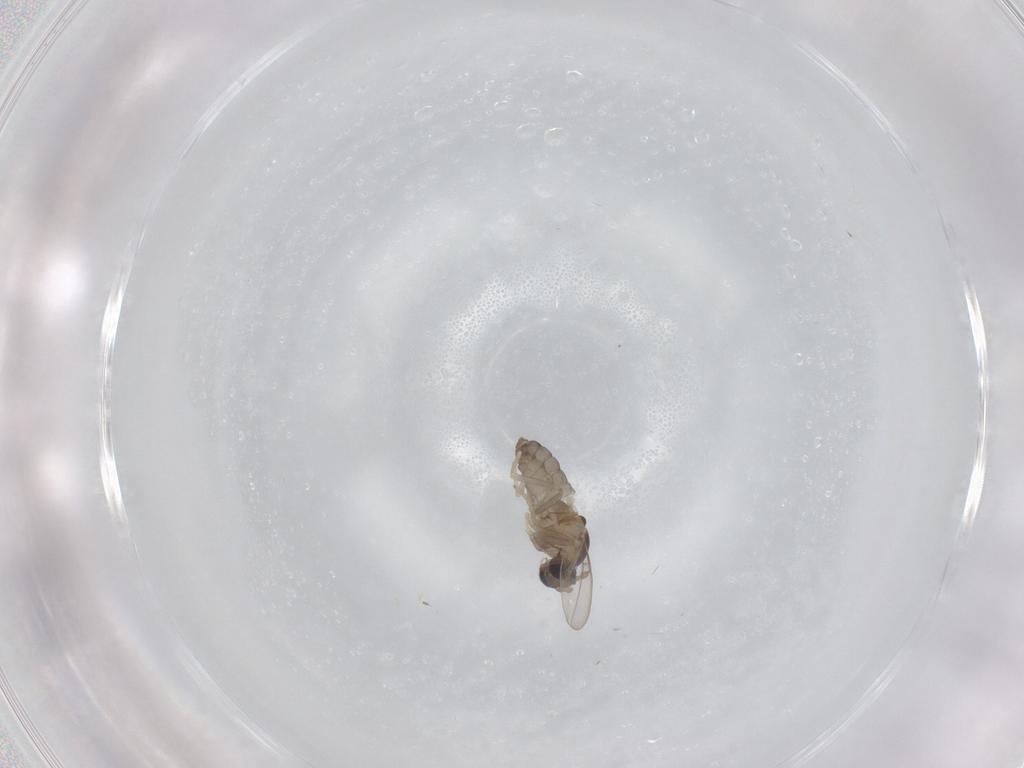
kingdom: Animalia
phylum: Arthropoda
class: Insecta
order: Diptera
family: Cecidomyiidae
